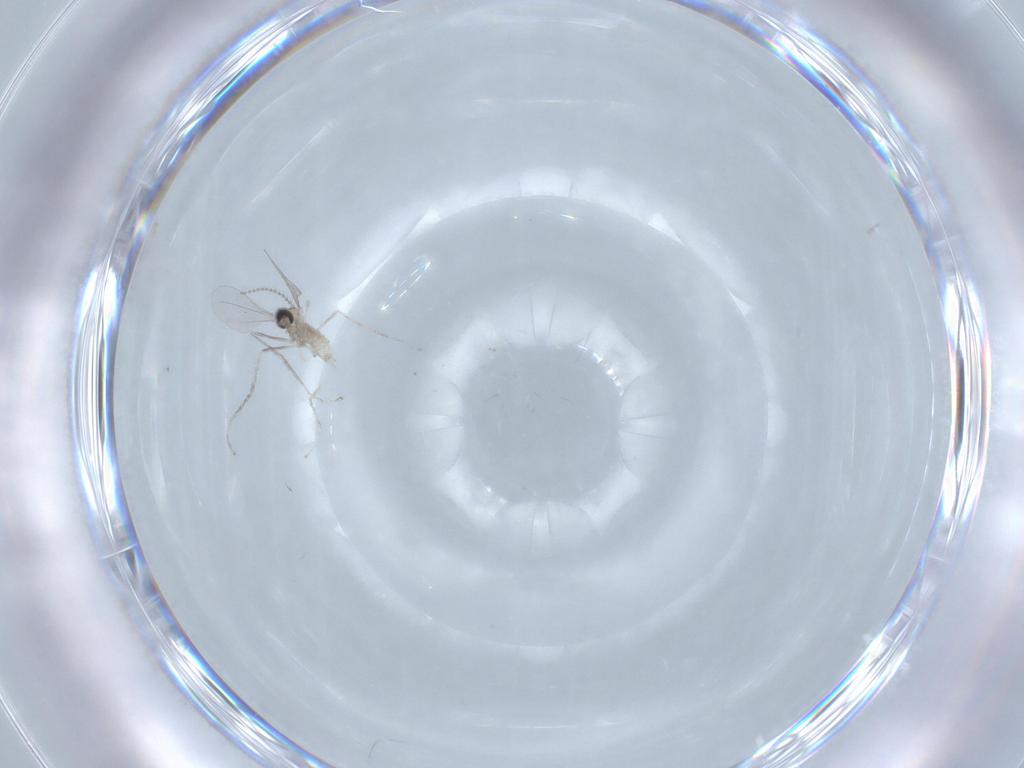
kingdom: Animalia
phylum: Arthropoda
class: Insecta
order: Diptera
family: Cecidomyiidae
